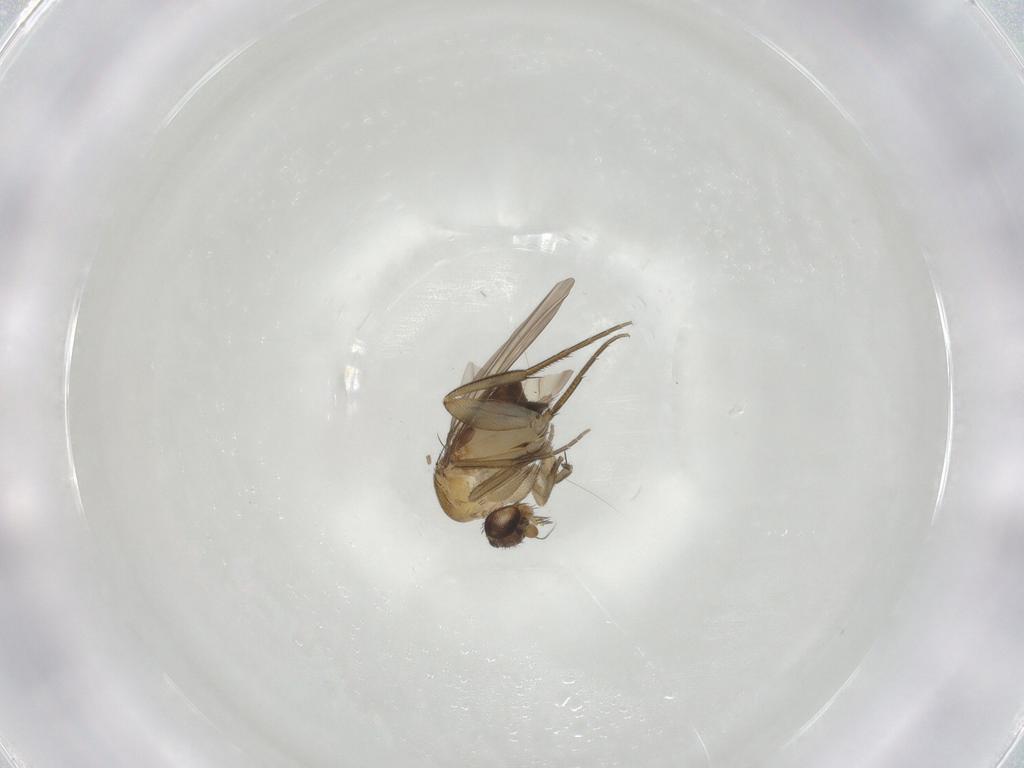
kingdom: Animalia
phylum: Arthropoda
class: Insecta
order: Diptera
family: Phoridae
